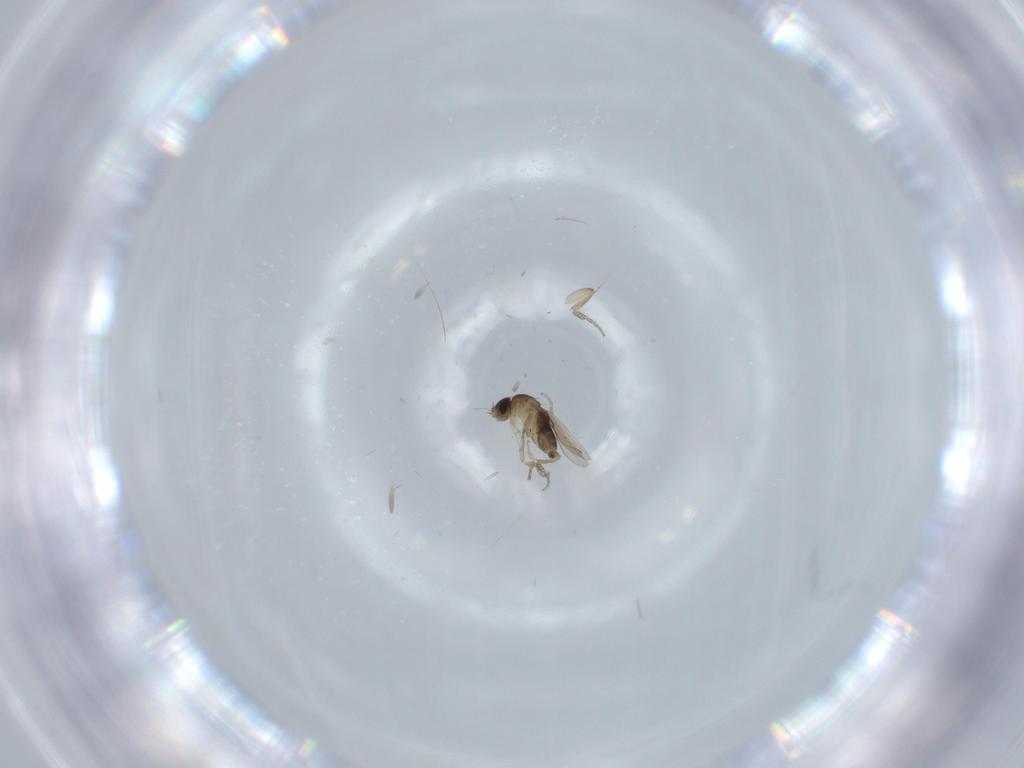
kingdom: Animalia
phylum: Arthropoda
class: Insecta
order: Diptera
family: Phoridae
